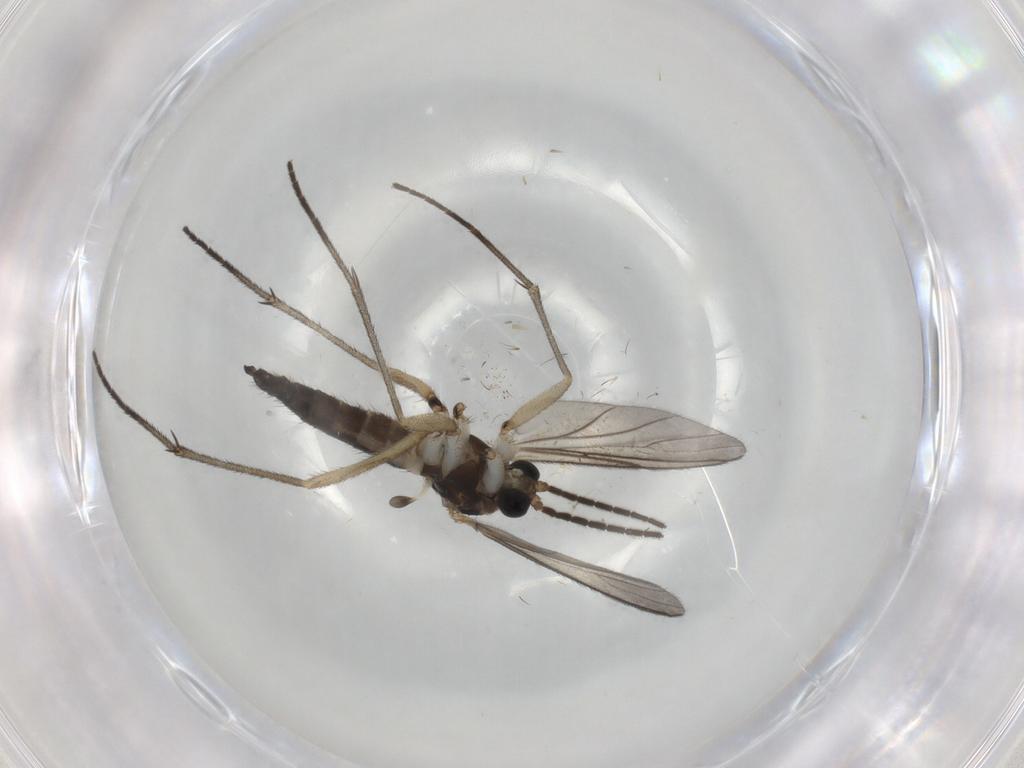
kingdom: Animalia
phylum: Arthropoda
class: Insecta
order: Diptera
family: Sciaridae
